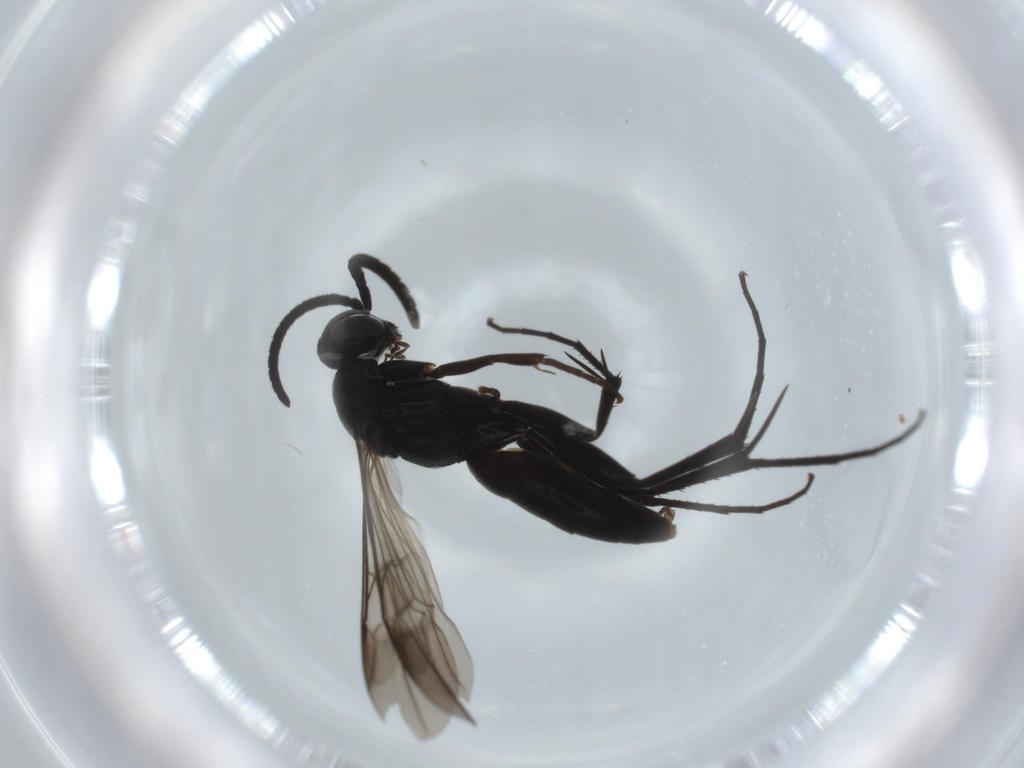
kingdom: Animalia
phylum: Arthropoda
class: Insecta
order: Hymenoptera
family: Pompilidae
